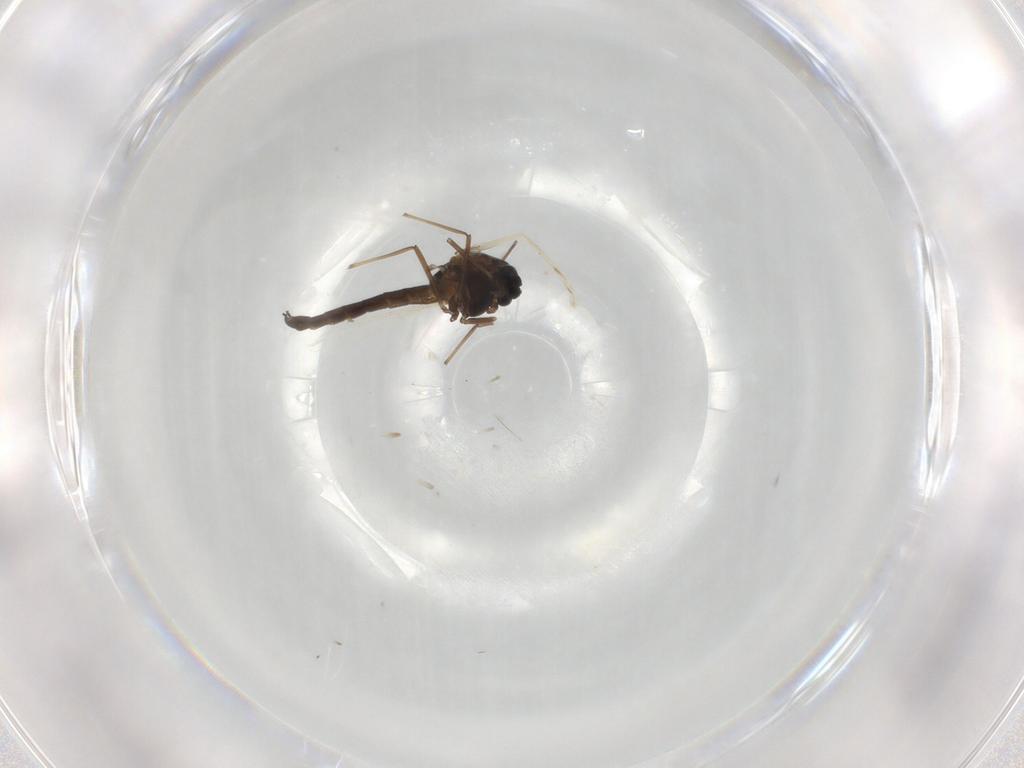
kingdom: Animalia
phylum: Arthropoda
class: Insecta
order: Diptera
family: Chironomidae
